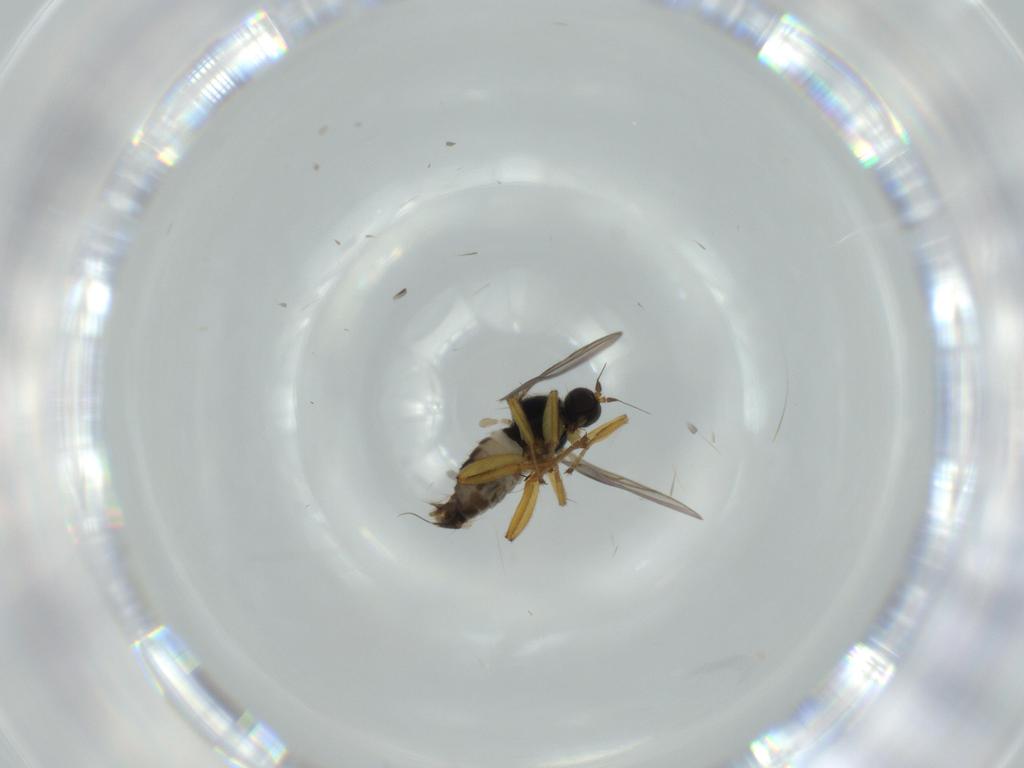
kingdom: Animalia
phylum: Arthropoda
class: Insecta
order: Diptera
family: Hybotidae
